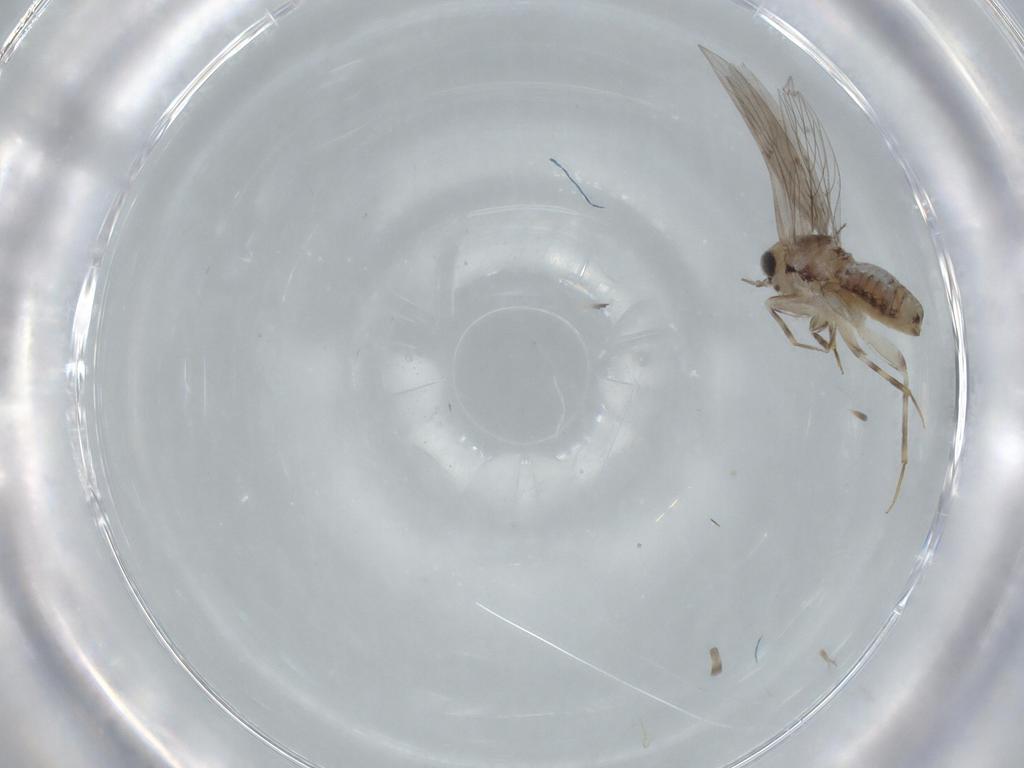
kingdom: Animalia
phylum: Arthropoda
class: Insecta
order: Psocodea
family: Lepidopsocidae
